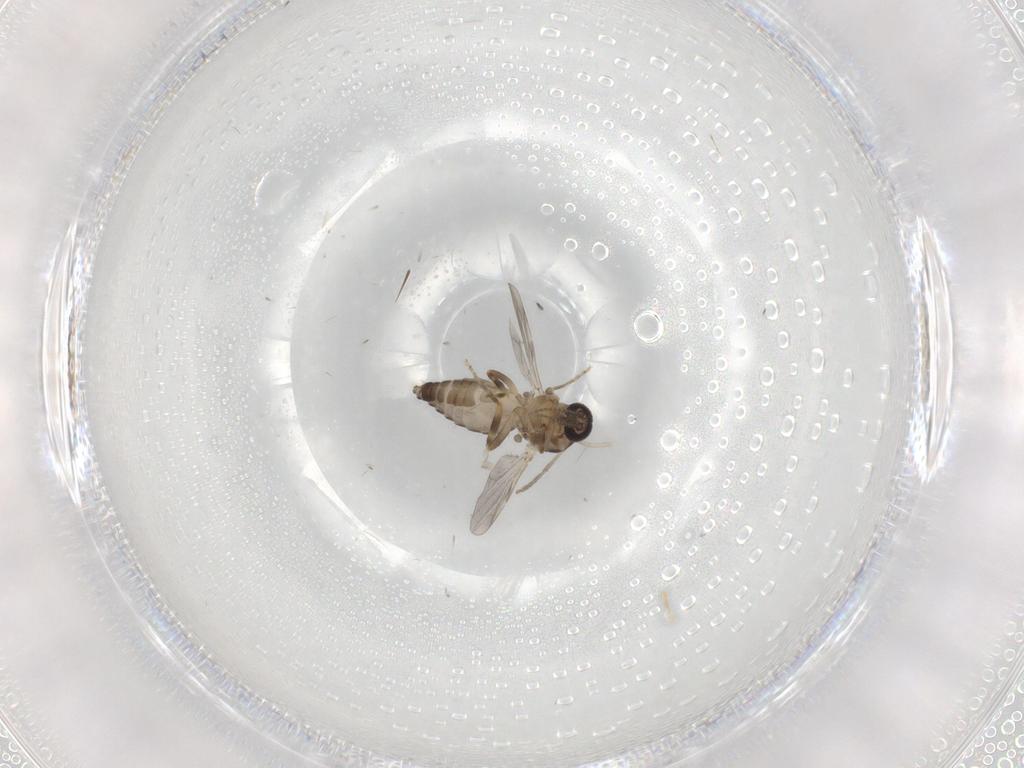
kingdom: Animalia
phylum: Arthropoda
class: Insecta
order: Diptera
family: Ceratopogonidae
